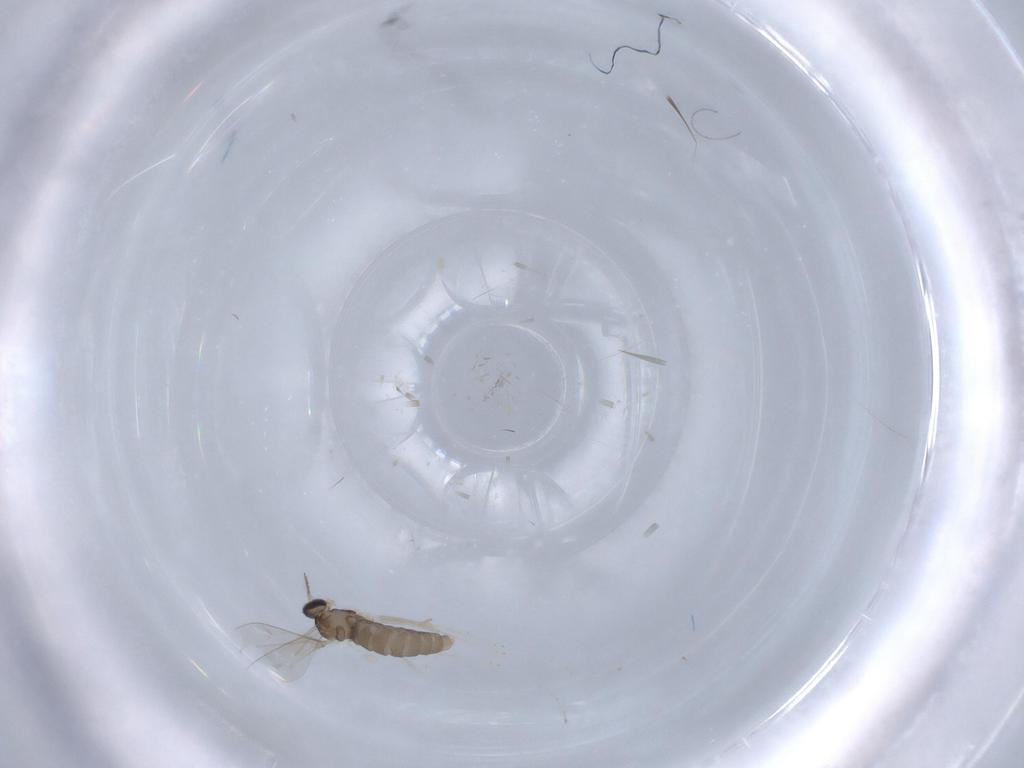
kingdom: Animalia
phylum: Arthropoda
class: Insecta
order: Diptera
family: Cecidomyiidae
